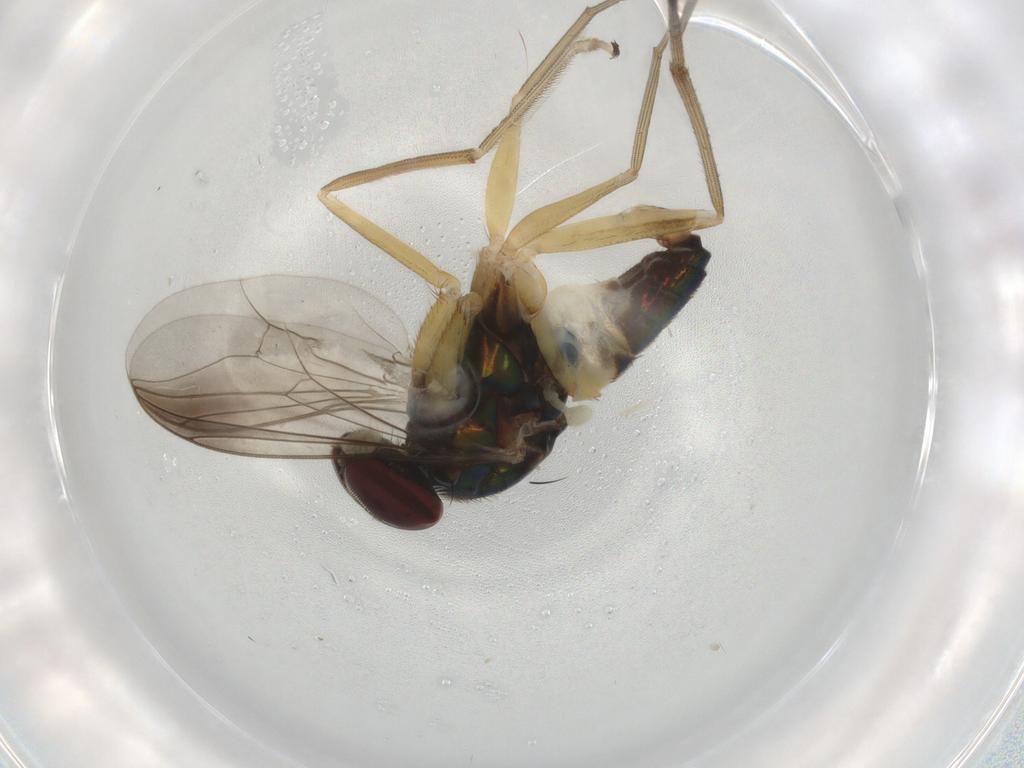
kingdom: Animalia
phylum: Arthropoda
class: Insecta
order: Diptera
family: Dolichopodidae
